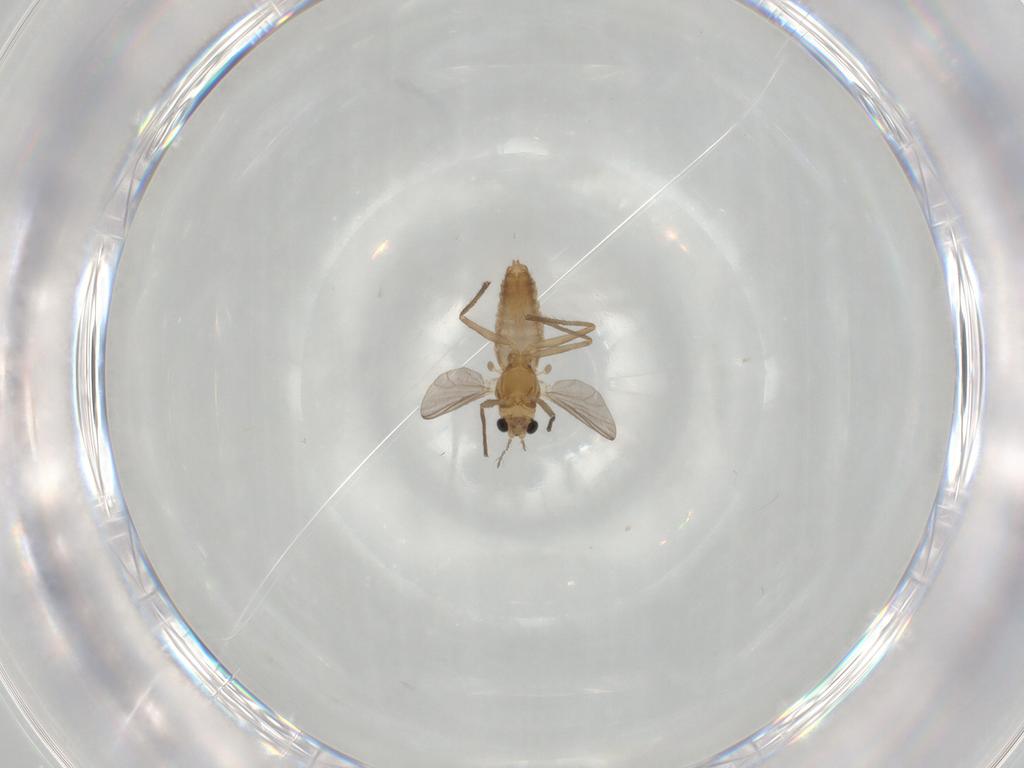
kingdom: Animalia
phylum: Arthropoda
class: Insecta
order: Diptera
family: Chironomidae
